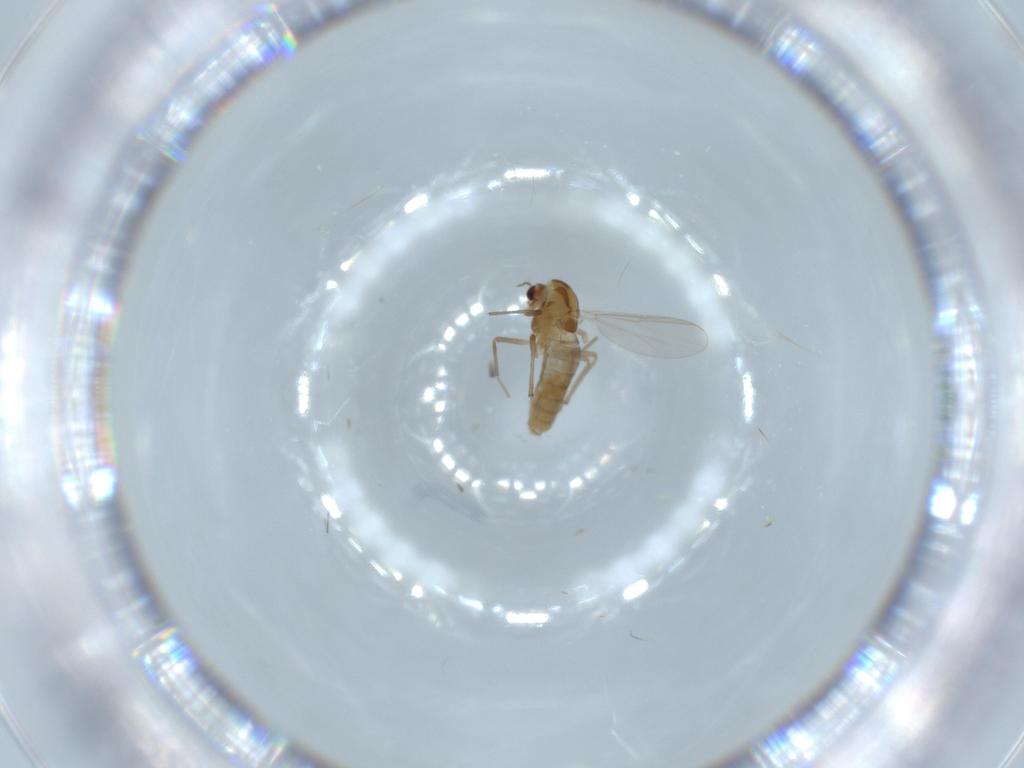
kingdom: Animalia
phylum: Arthropoda
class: Insecta
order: Diptera
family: Chironomidae
